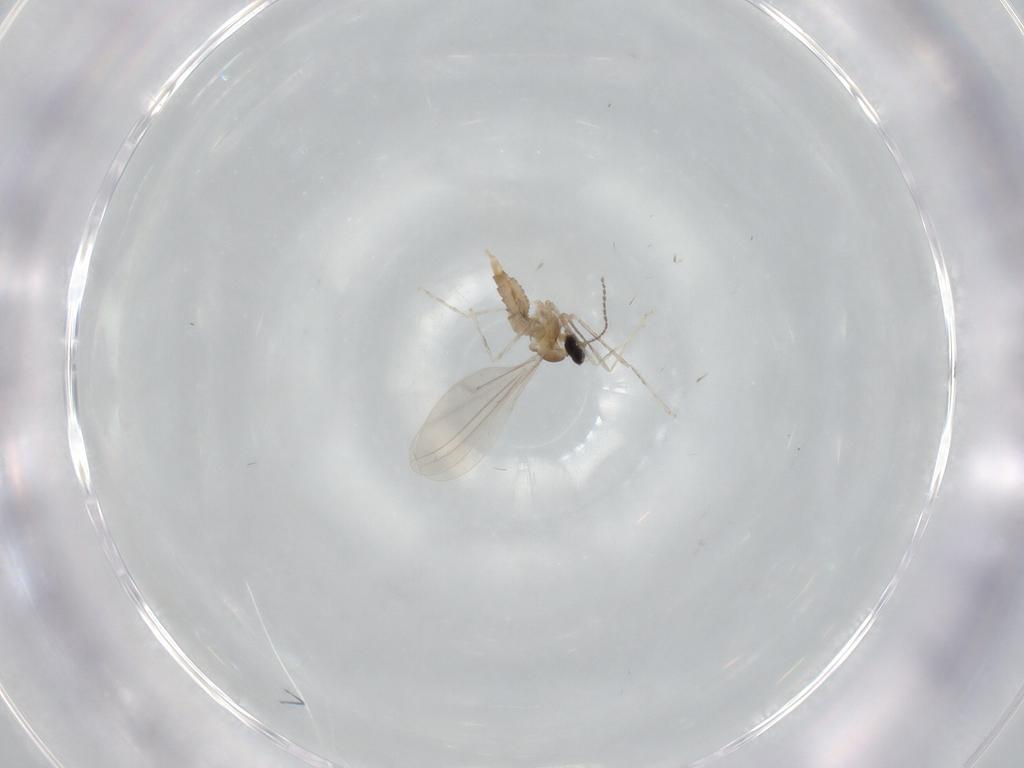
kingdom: Animalia
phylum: Arthropoda
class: Insecta
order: Diptera
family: Cecidomyiidae
